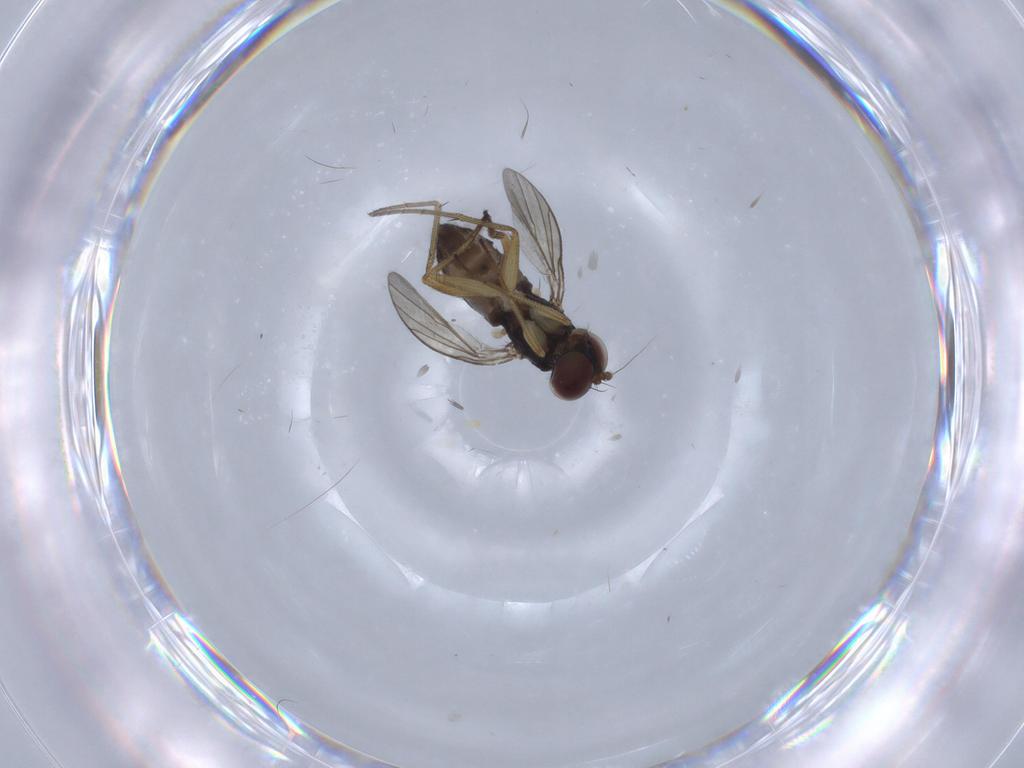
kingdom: Animalia
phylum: Arthropoda
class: Insecta
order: Diptera
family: Dolichopodidae
